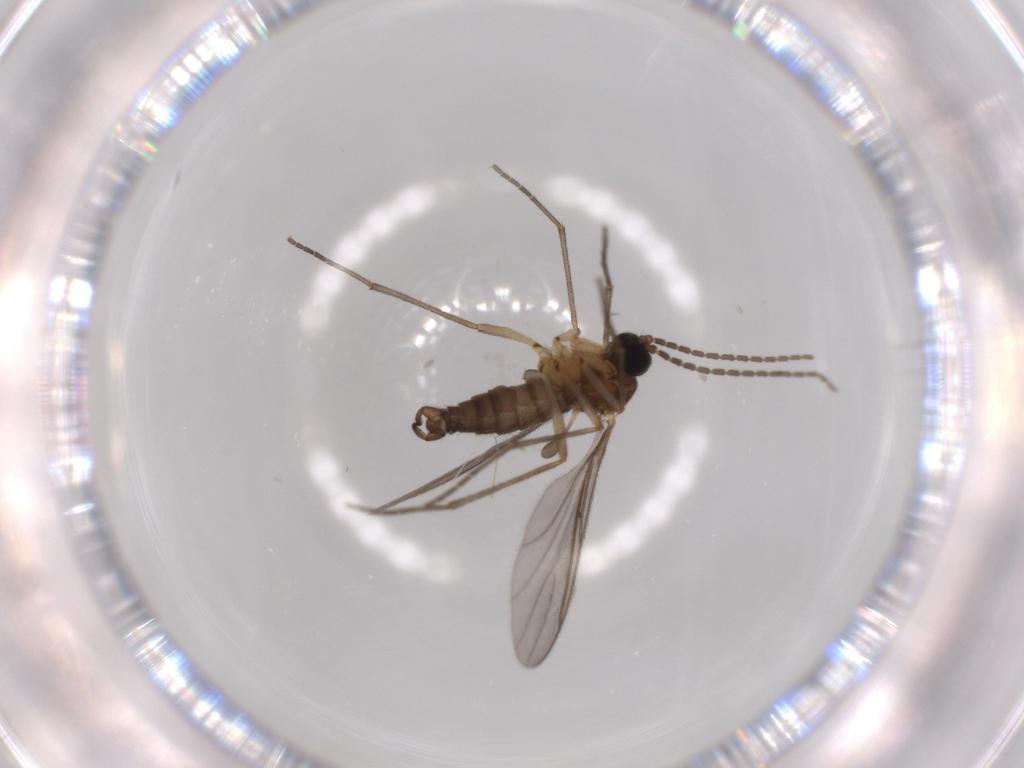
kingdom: Animalia
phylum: Arthropoda
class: Insecta
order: Diptera
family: Sciaridae
